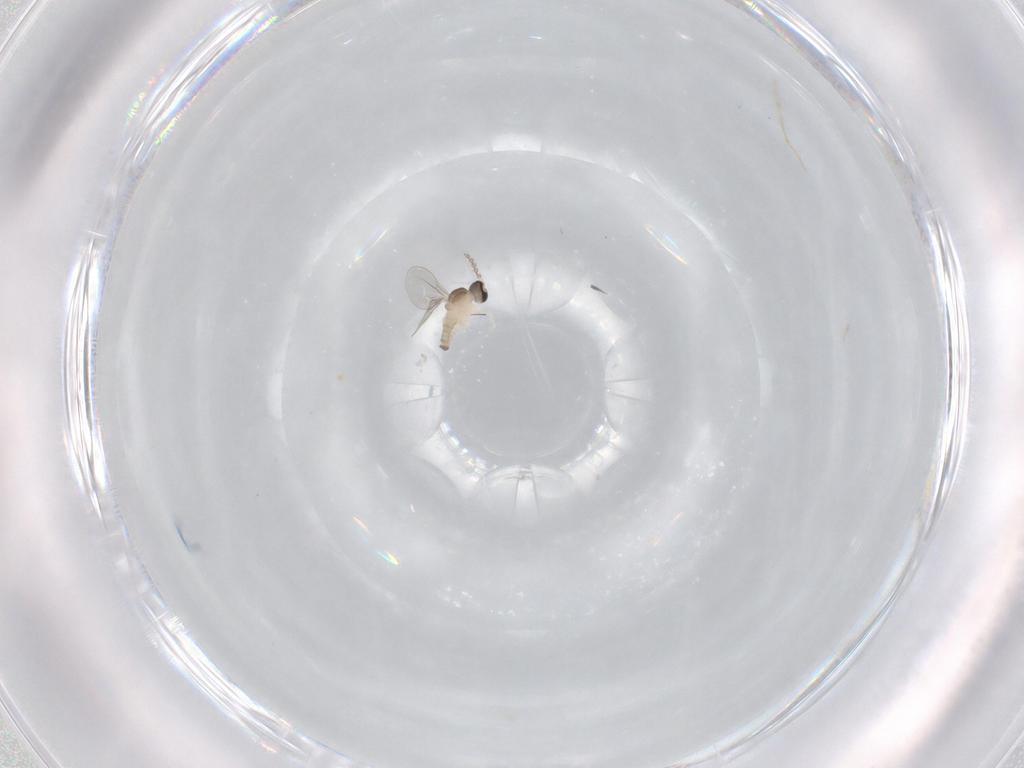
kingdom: Animalia
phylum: Arthropoda
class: Insecta
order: Diptera
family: Cecidomyiidae
